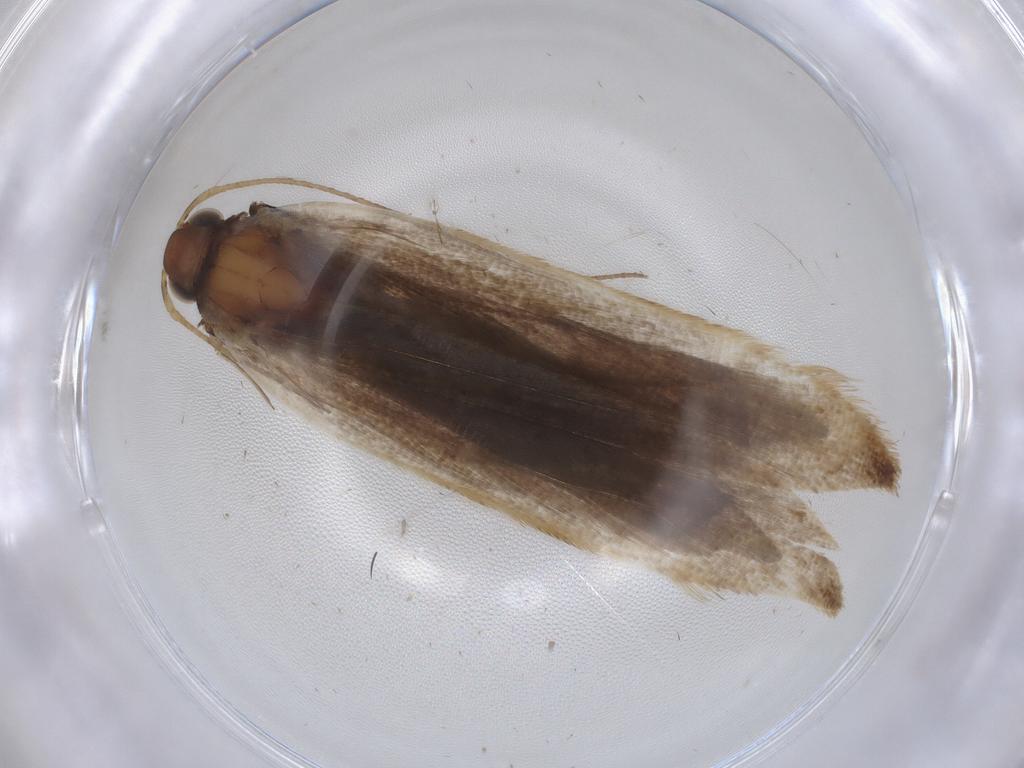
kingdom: Animalia
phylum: Arthropoda
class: Insecta
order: Lepidoptera
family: Gelechiidae
